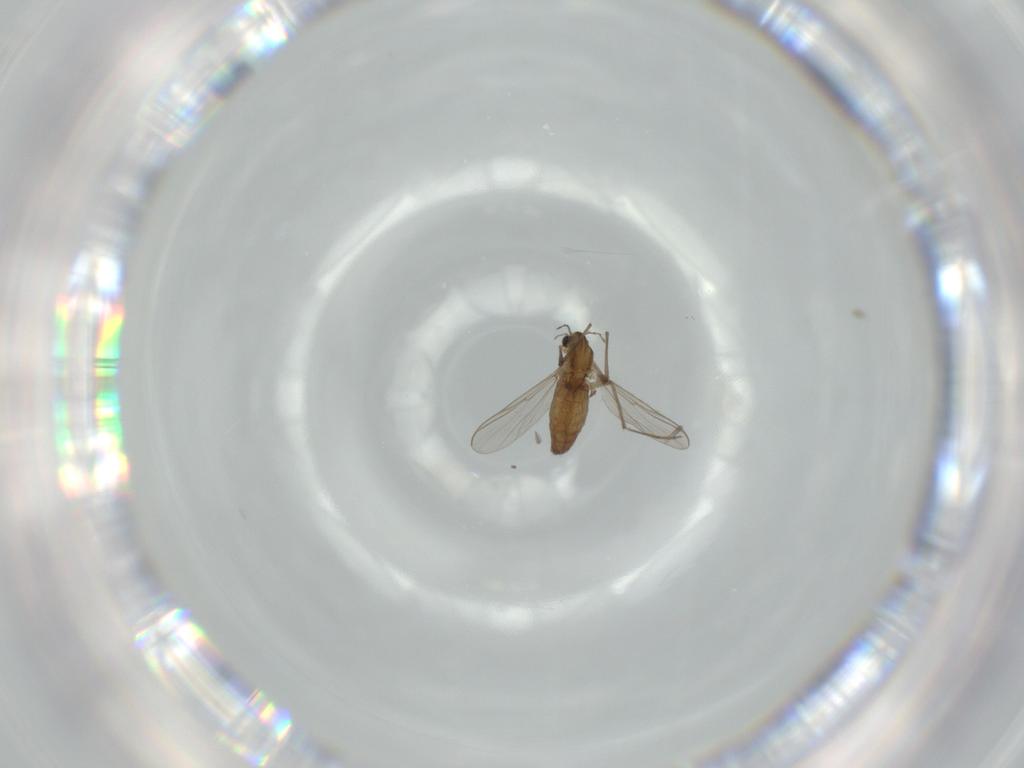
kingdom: Animalia
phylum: Arthropoda
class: Insecta
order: Diptera
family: Chironomidae
